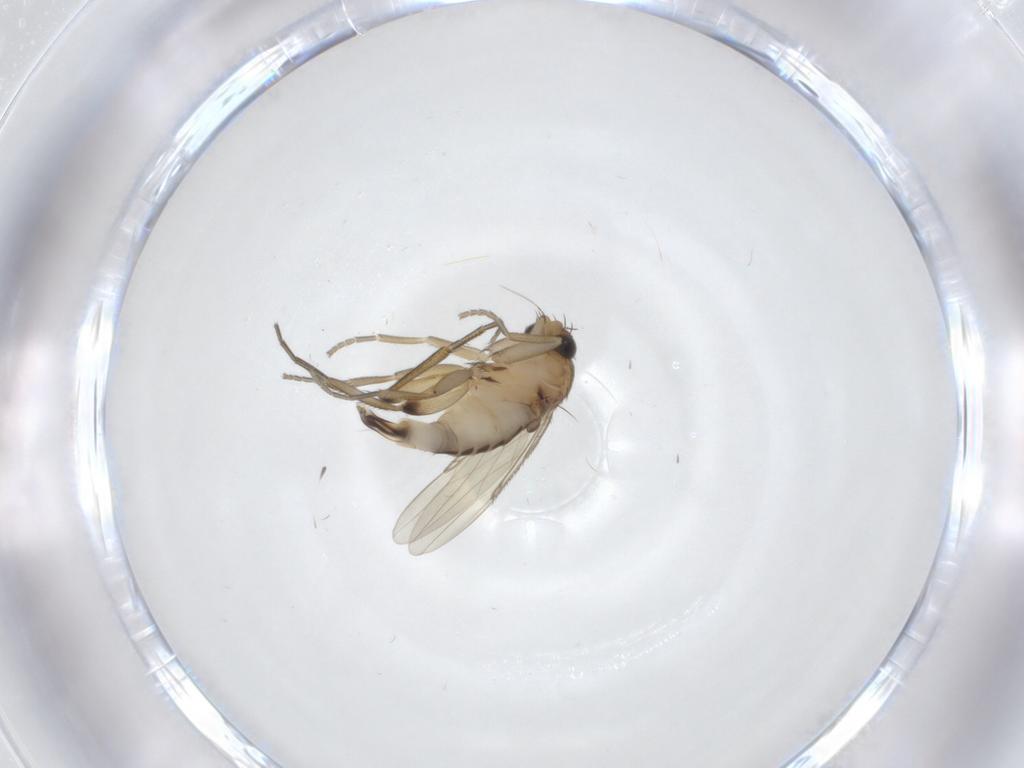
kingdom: Animalia
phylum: Arthropoda
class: Insecta
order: Diptera
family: Phoridae
